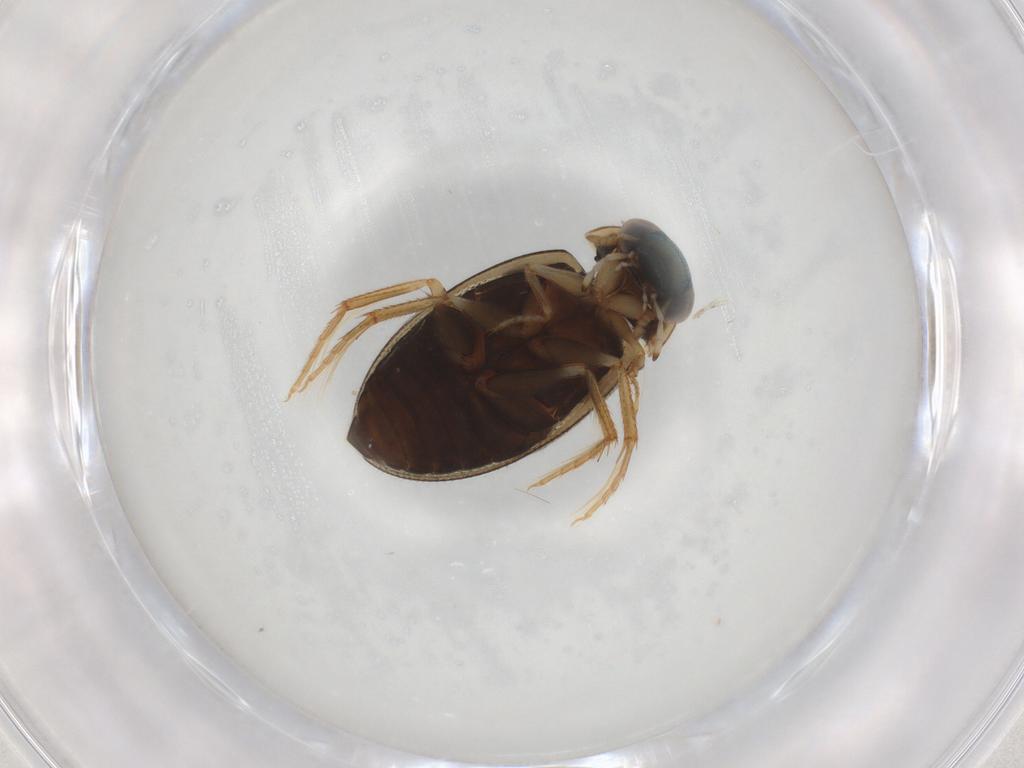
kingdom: Animalia
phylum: Arthropoda
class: Insecta
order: Coleoptera
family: Hydrophilidae
